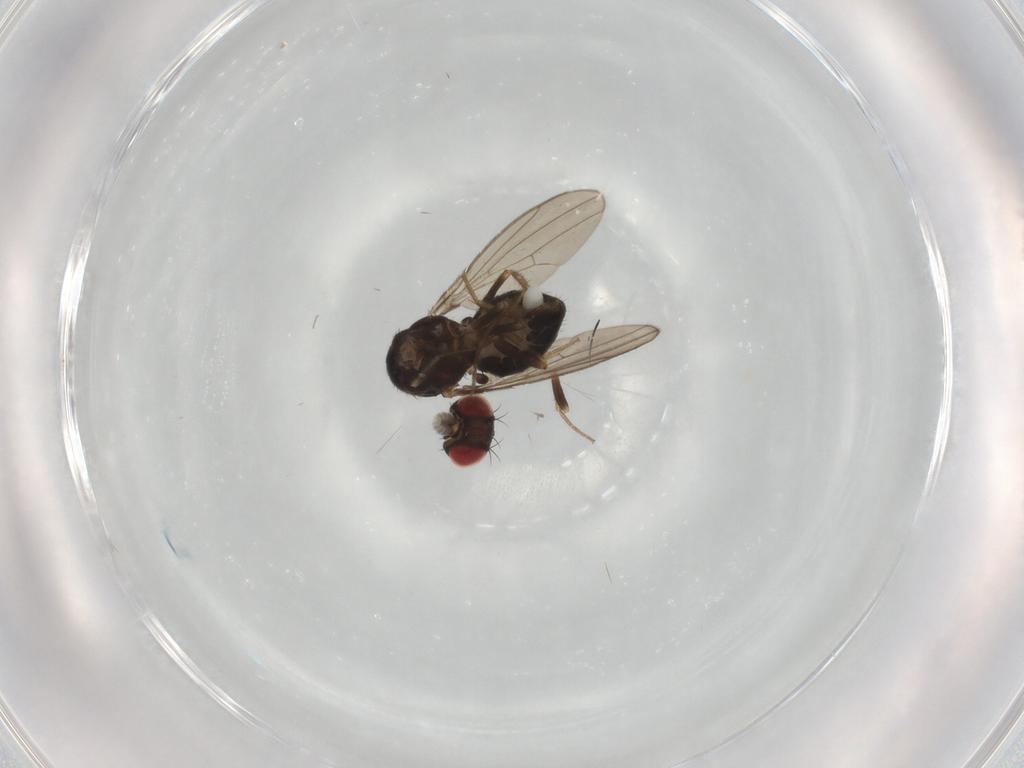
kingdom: Animalia
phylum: Arthropoda
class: Insecta
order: Diptera
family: Drosophilidae
